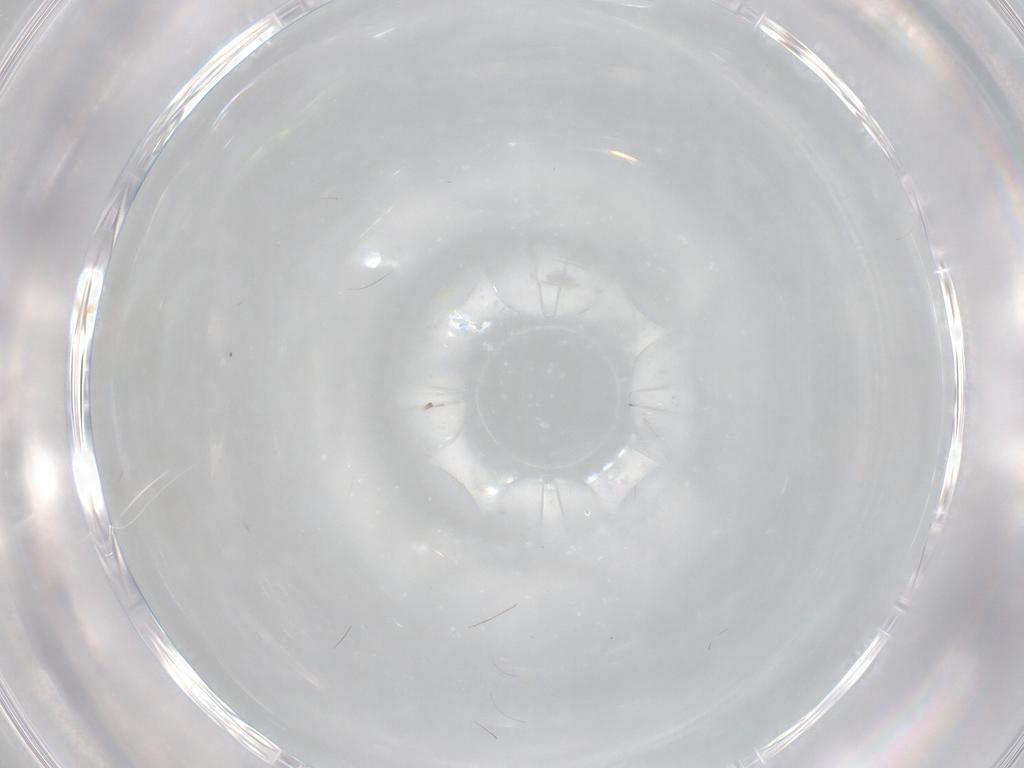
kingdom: Animalia
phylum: Arthropoda
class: Insecta
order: Hymenoptera
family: Encyrtidae
